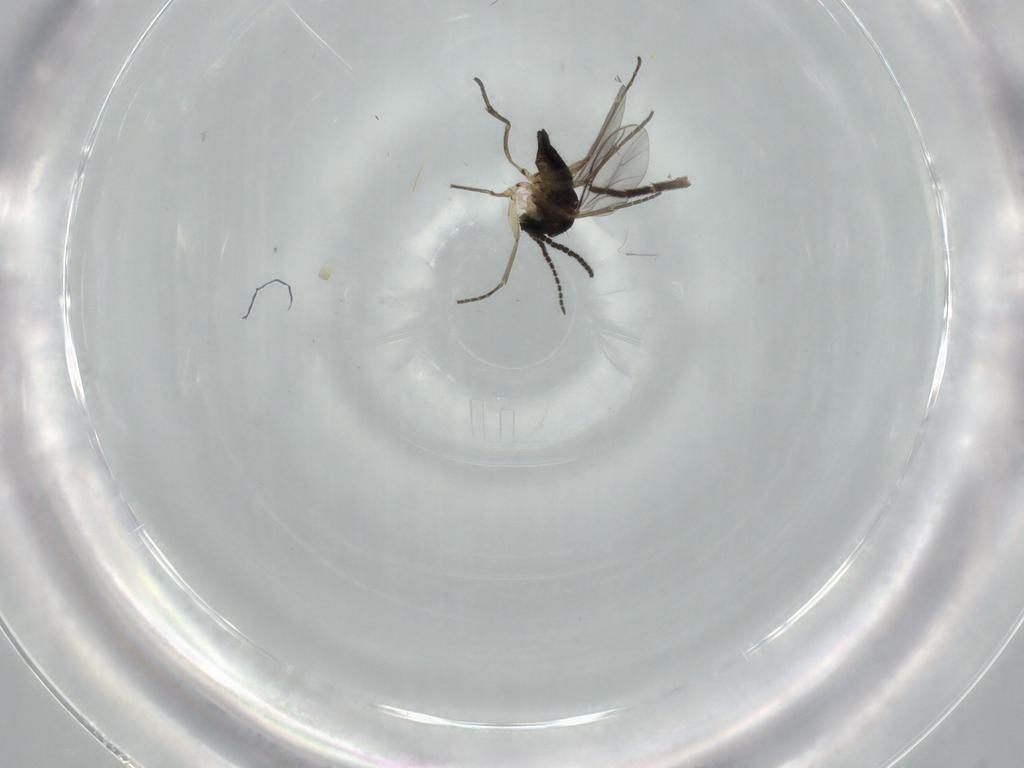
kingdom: Animalia
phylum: Arthropoda
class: Insecta
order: Diptera
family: Sciaridae
